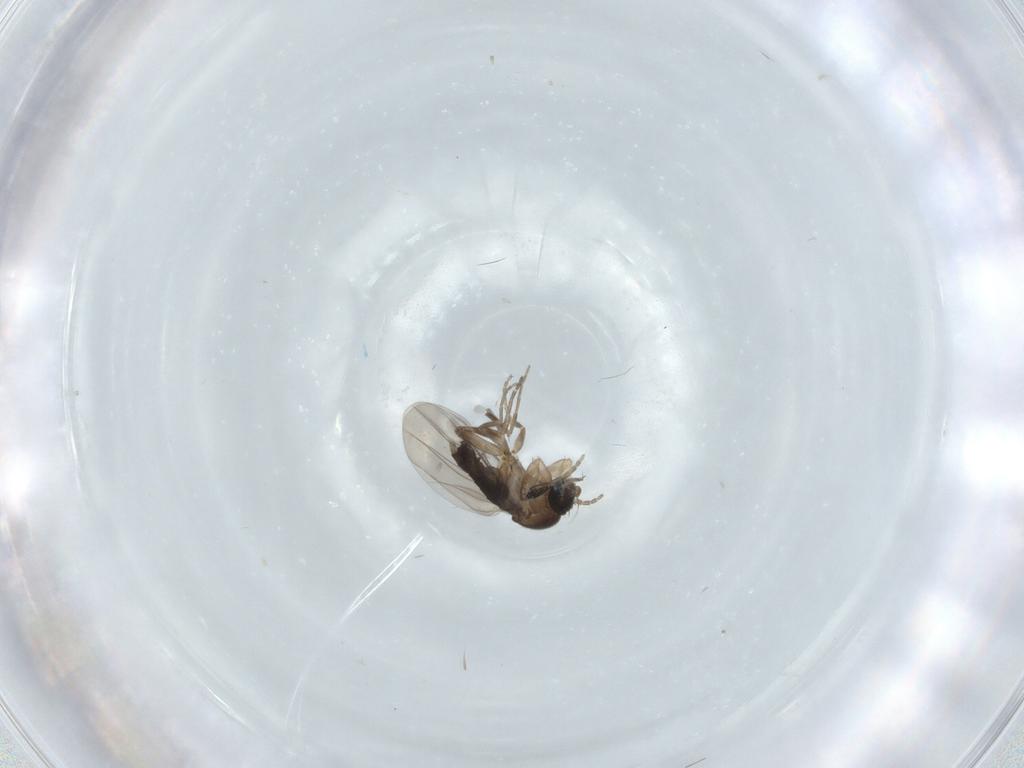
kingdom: Animalia
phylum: Arthropoda
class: Insecta
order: Diptera
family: Phoridae
